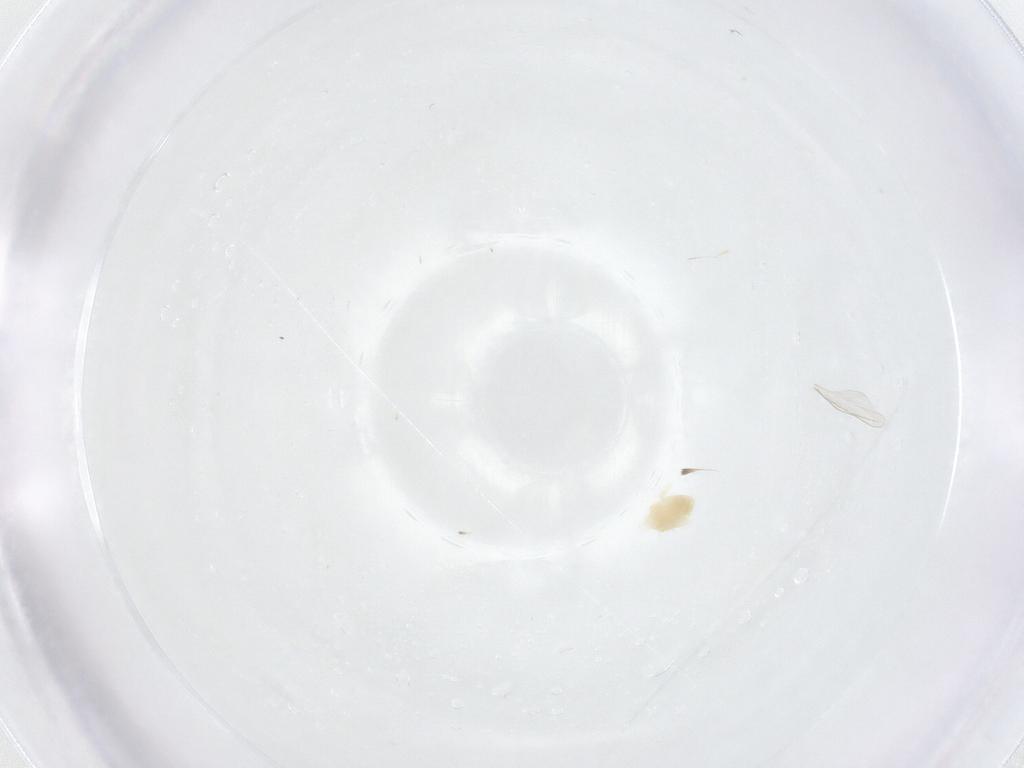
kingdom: Animalia
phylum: Arthropoda
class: Arachnida
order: Trombidiformes
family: Eupodidae
